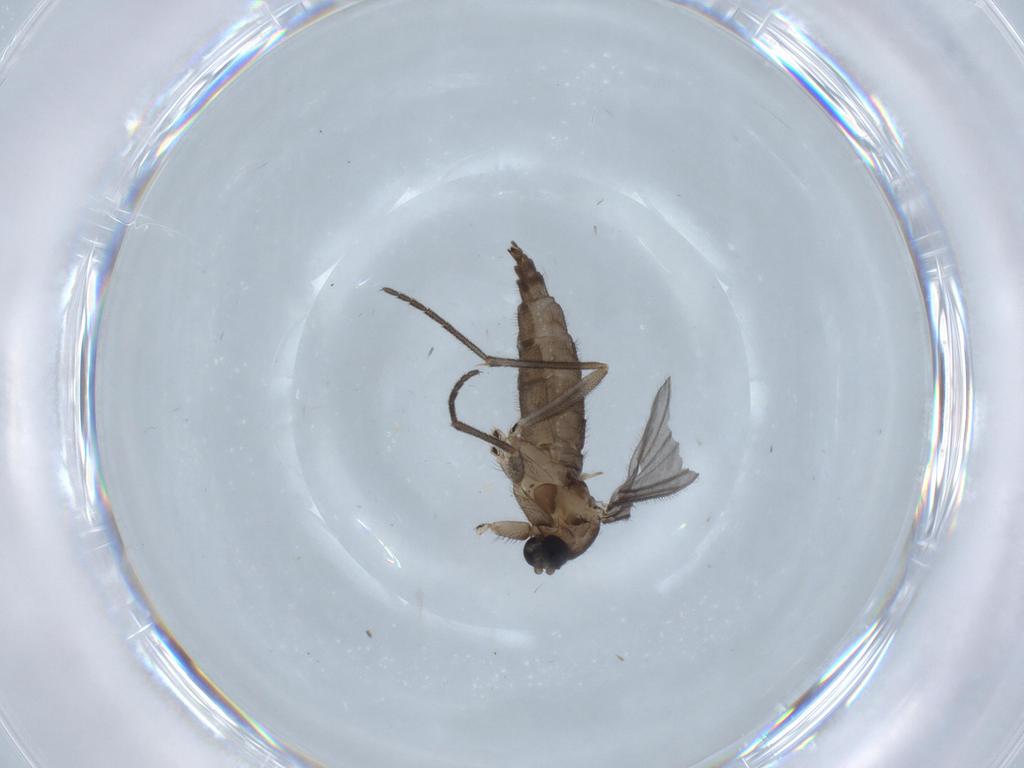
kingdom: Animalia
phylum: Arthropoda
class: Insecta
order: Diptera
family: Sciaridae
